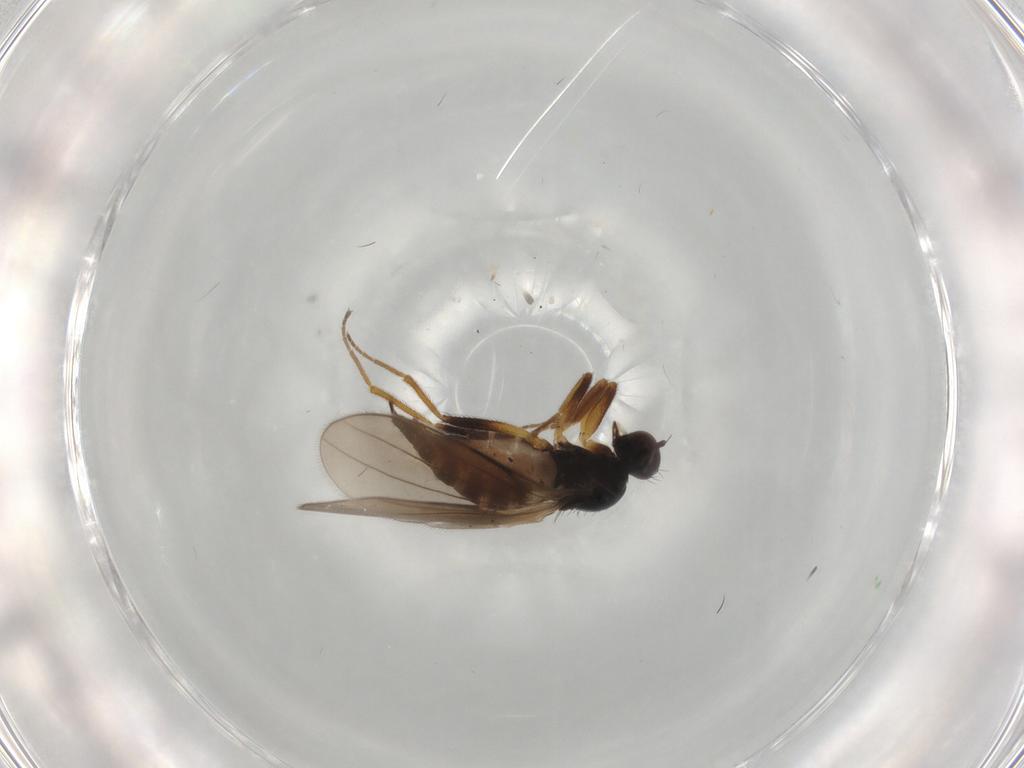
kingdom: Animalia
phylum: Arthropoda
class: Insecta
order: Diptera
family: Hybotidae
